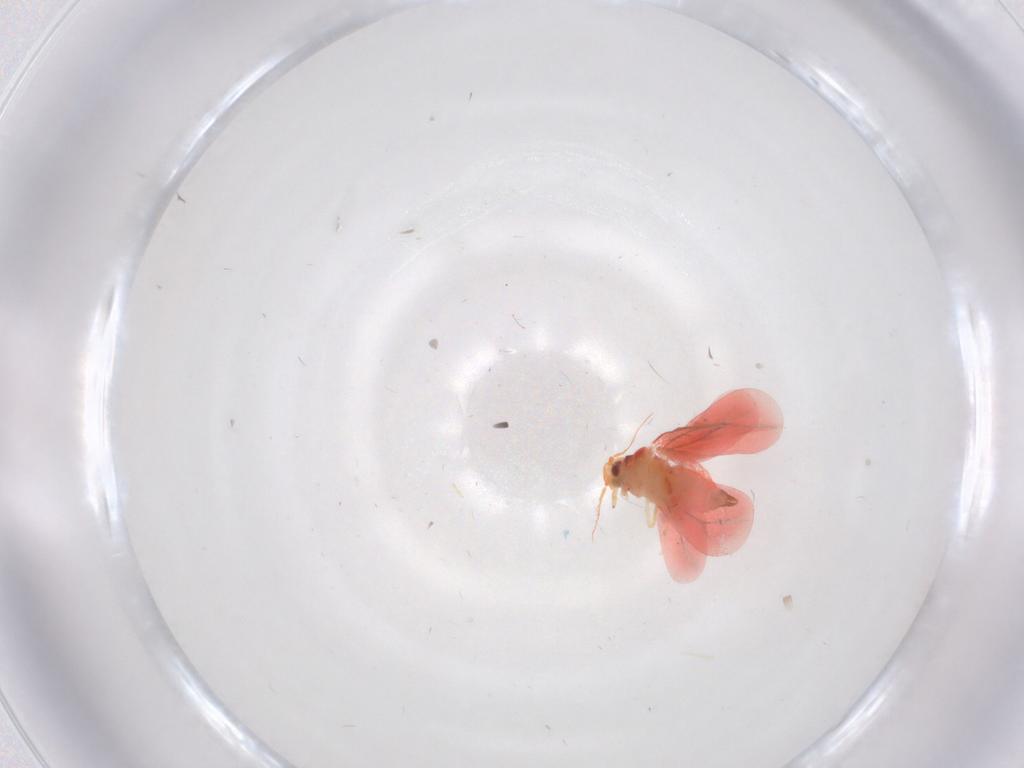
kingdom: Animalia
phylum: Arthropoda
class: Insecta
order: Hemiptera
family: Aleyrodidae
